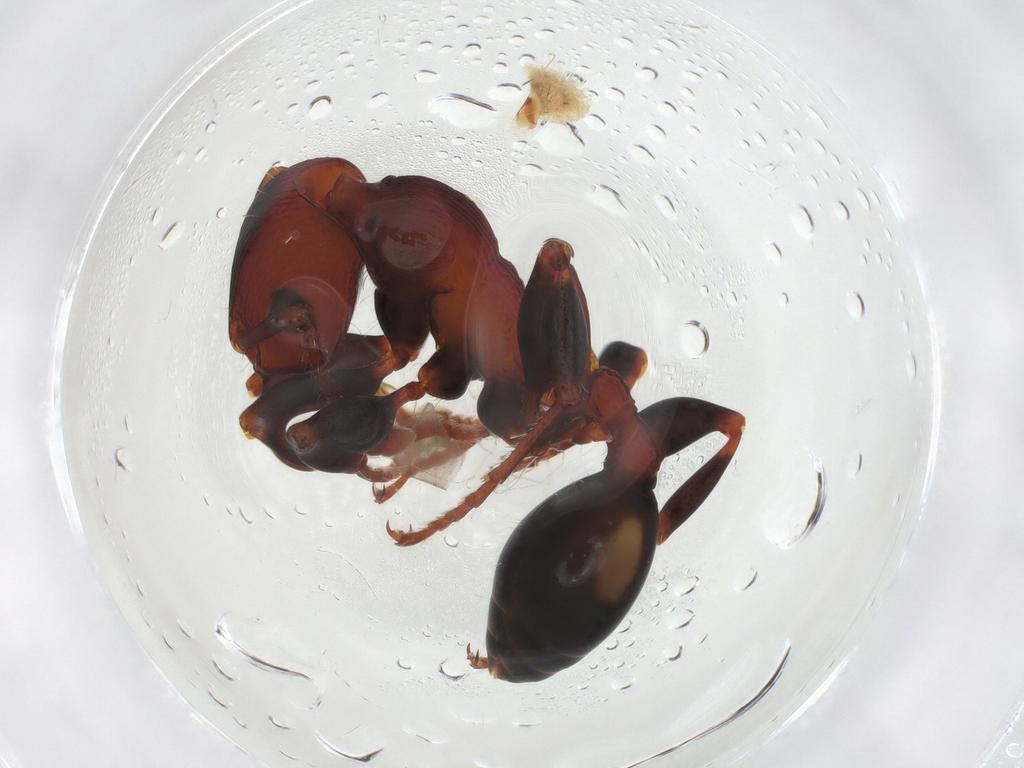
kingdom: Animalia
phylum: Arthropoda
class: Insecta
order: Hymenoptera
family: Formicidae
